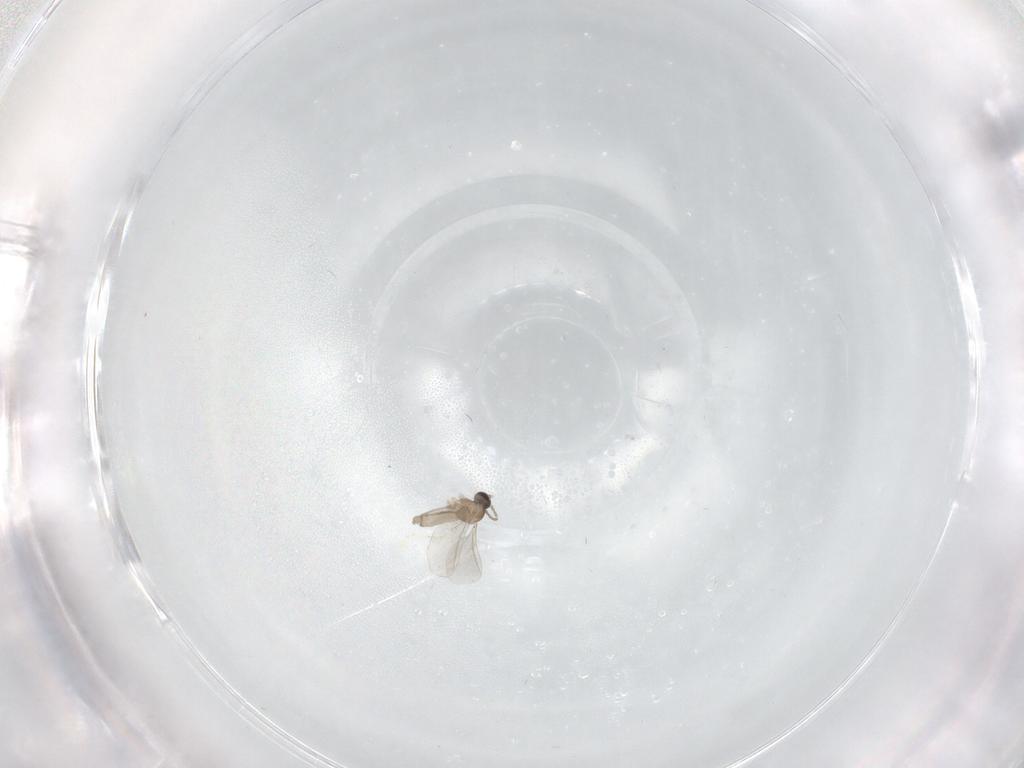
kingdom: Animalia
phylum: Arthropoda
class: Insecta
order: Diptera
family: Cecidomyiidae
